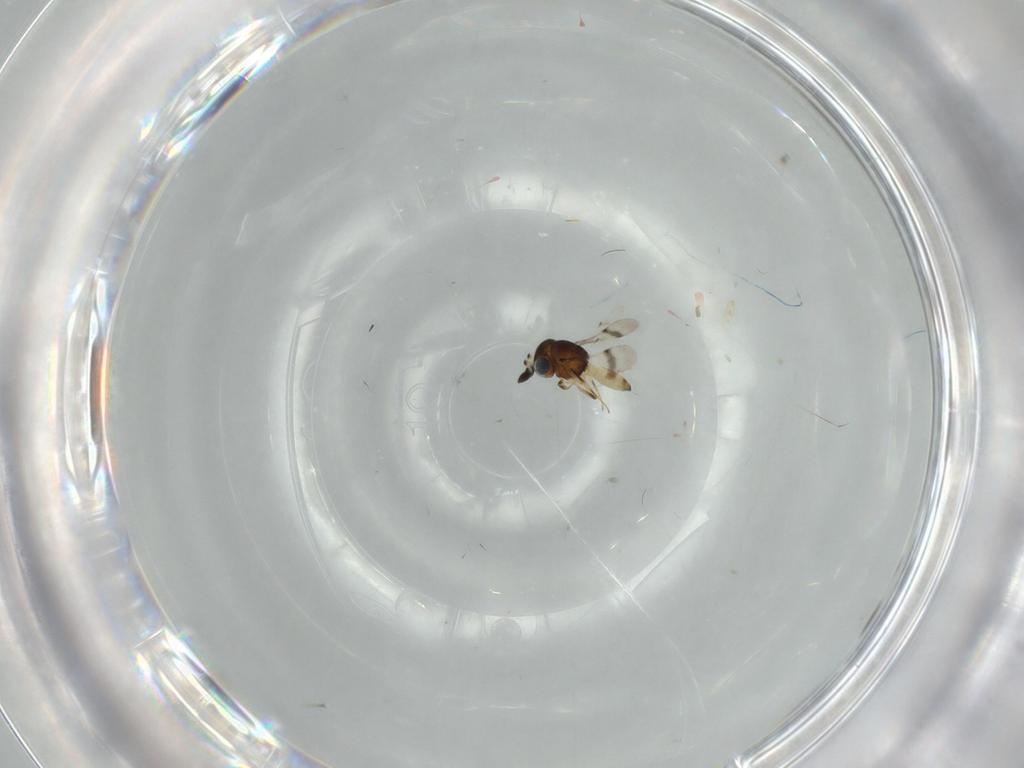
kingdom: Animalia
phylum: Arthropoda
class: Arachnida
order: Araneae
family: Pholcidae
